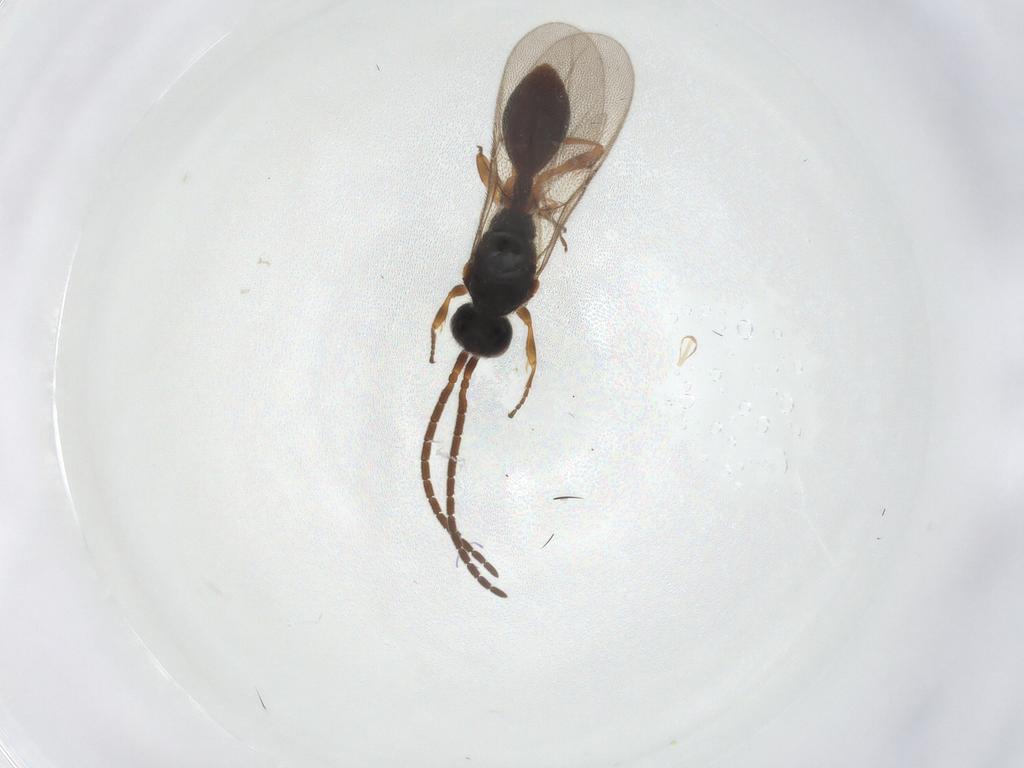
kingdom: Animalia
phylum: Arthropoda
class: Insecta
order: Hymenoptera
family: Diapriidae
